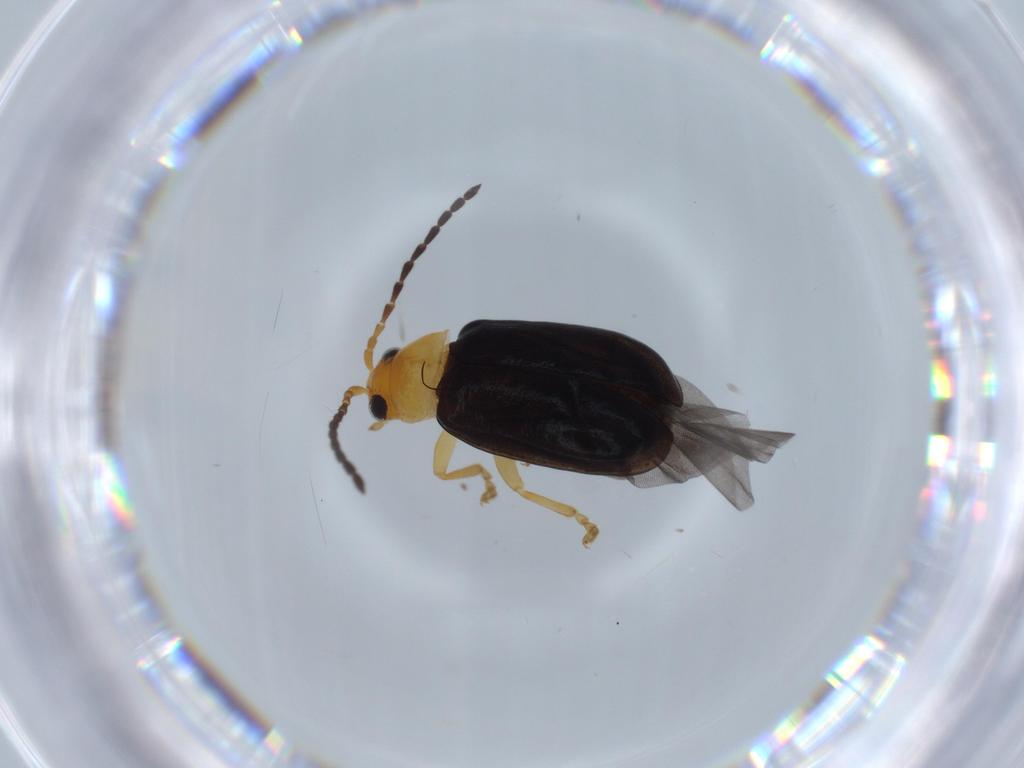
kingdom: Animalia
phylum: Arthropoda
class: Insecta
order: Coleoptera
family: Chrysomelidae
